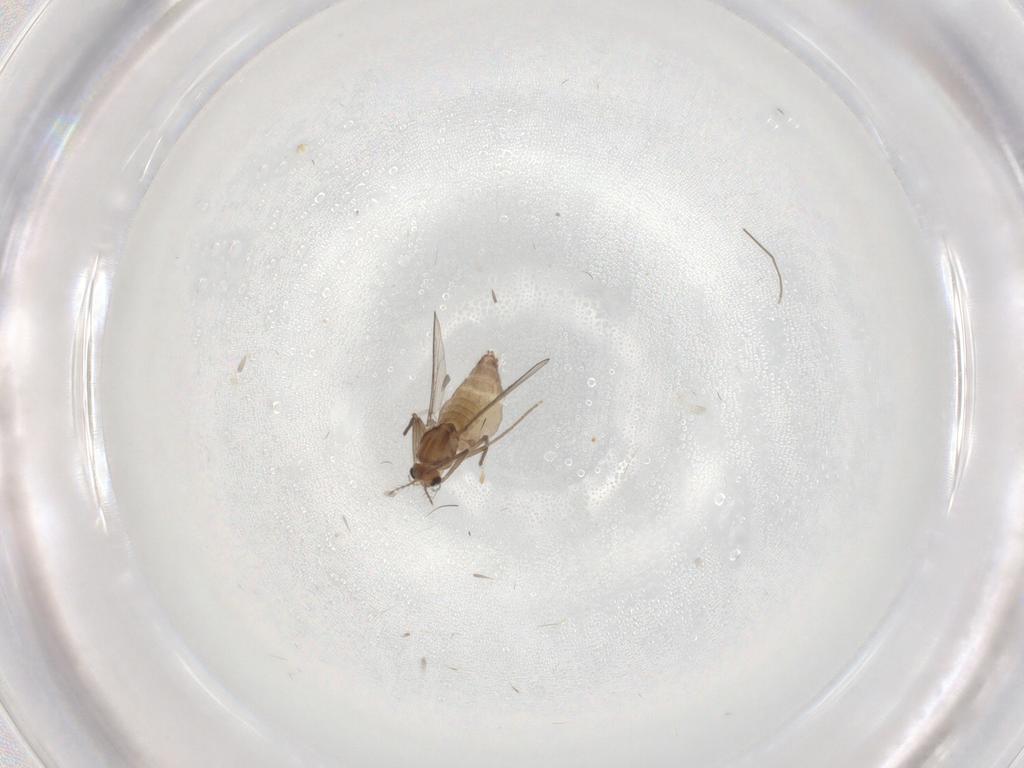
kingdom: Animalia
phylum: Arthropoda
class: Insecta
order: Diptera
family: Chironomidae
